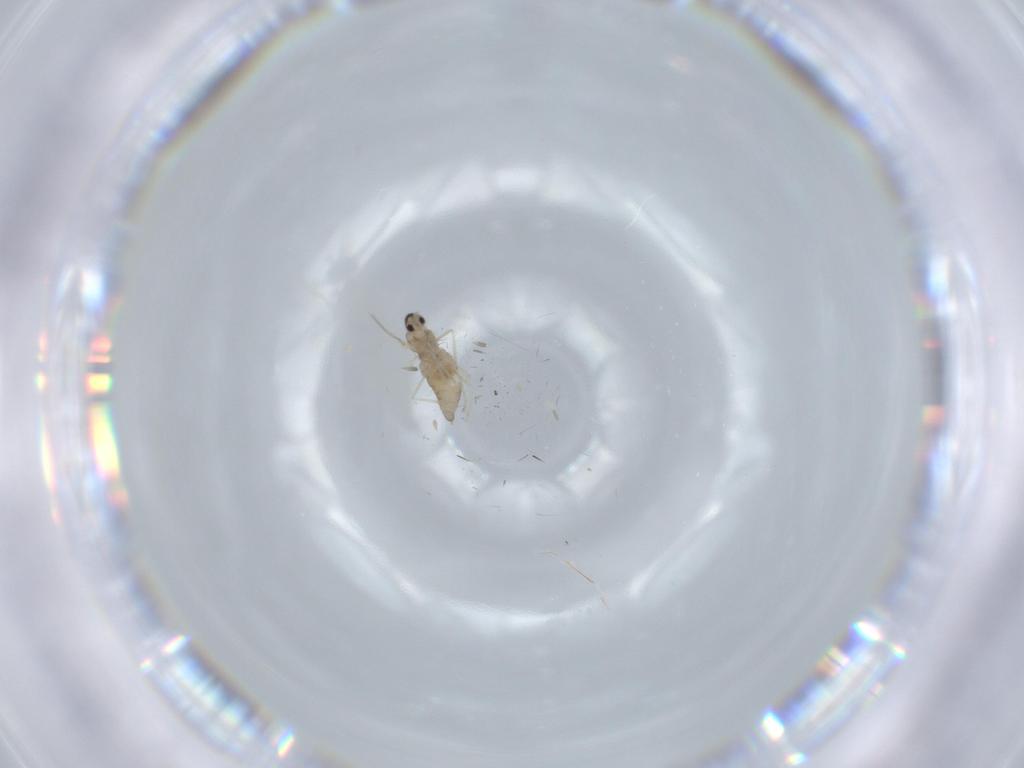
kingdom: Animalia
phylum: Arthropoda
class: Insecta
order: Diptera
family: Cecidomyiidae
